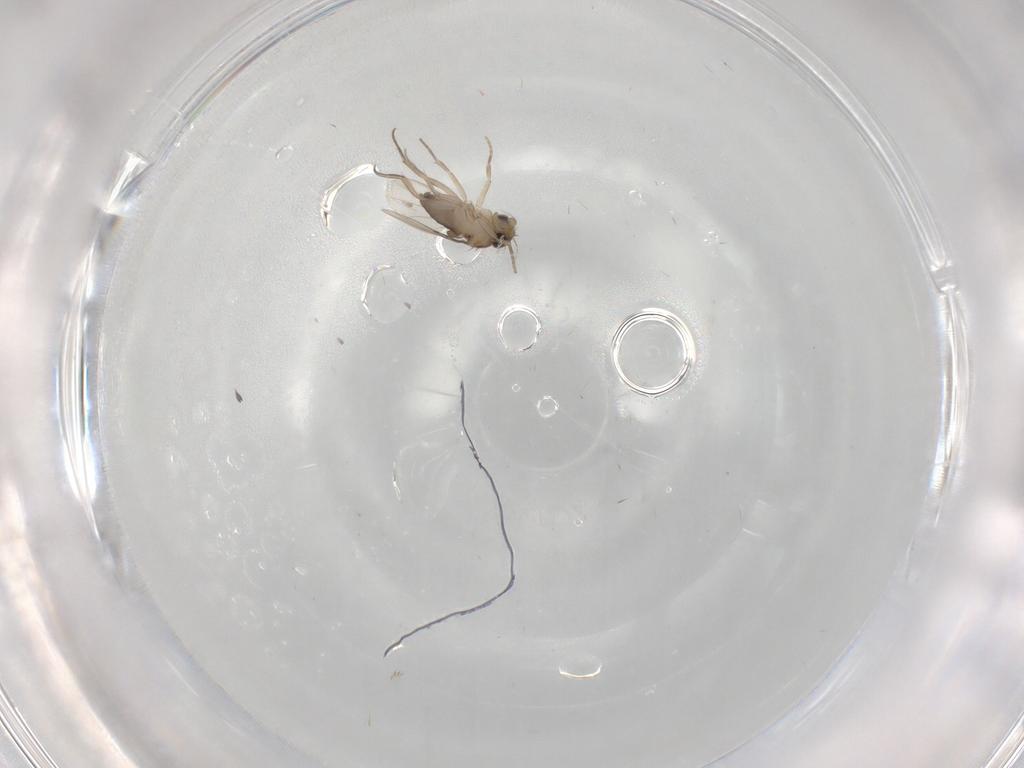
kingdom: Animalia
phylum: Arthropoda
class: Insecta
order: Diptera
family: Phoridae
